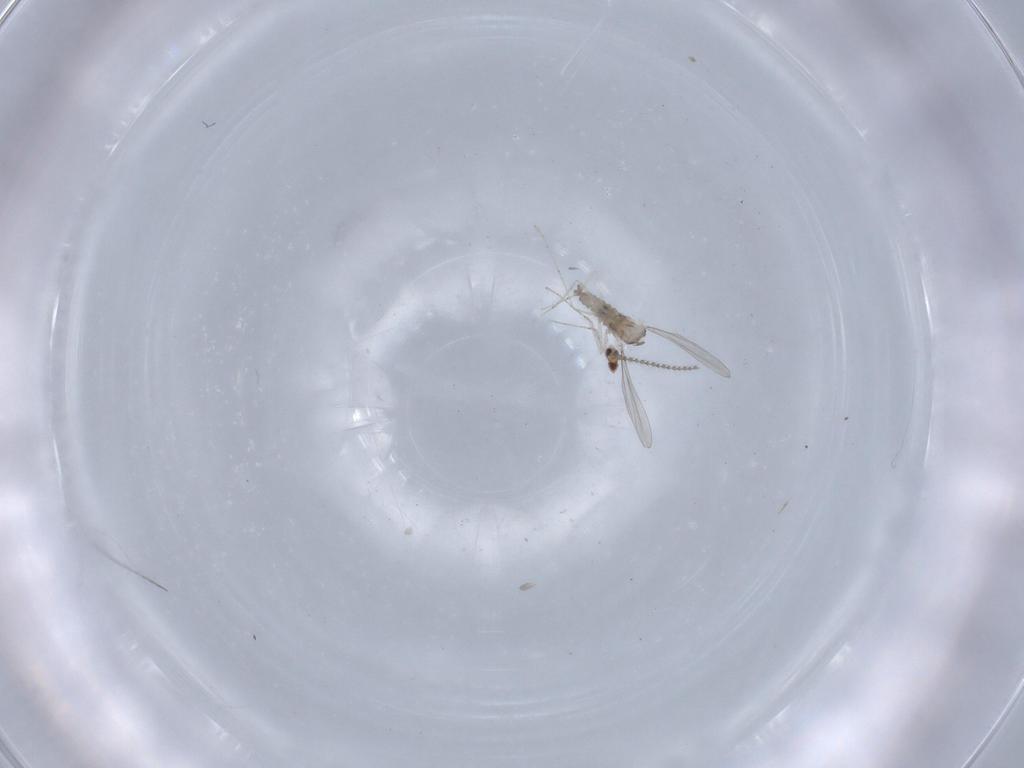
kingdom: Animalia
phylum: Arthropoda
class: Insecta
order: Diptera
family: Cecidomyiidae
